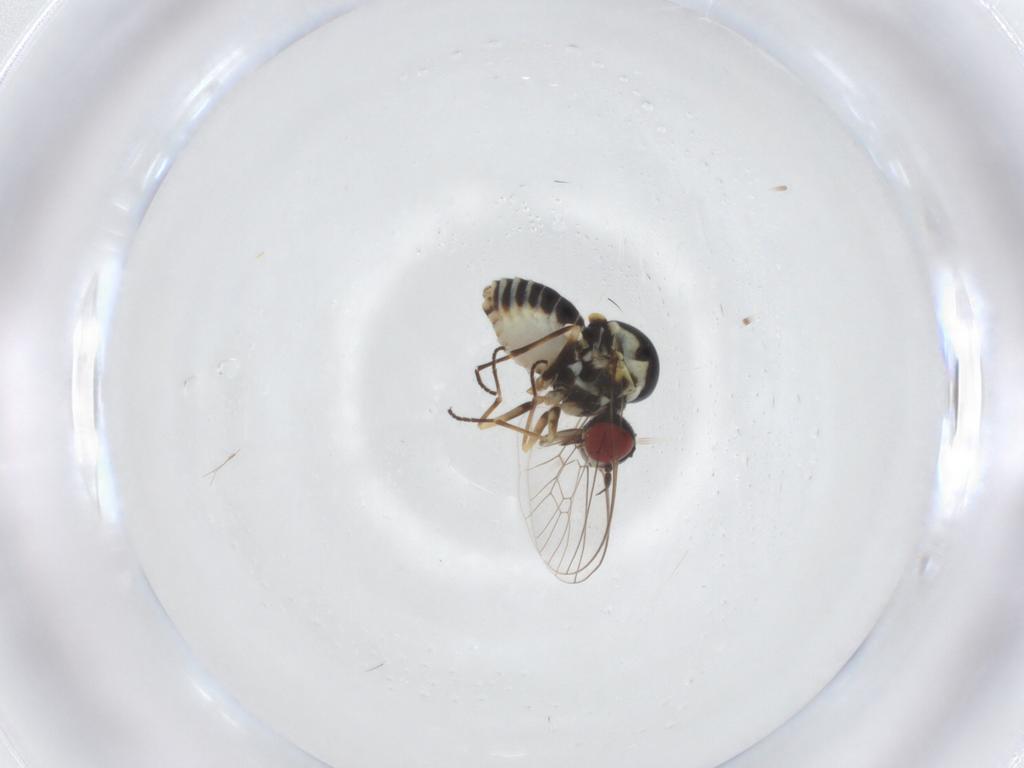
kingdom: Animalia
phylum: Arthropoda
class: Insecta
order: Diptera
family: Bombyliidae
